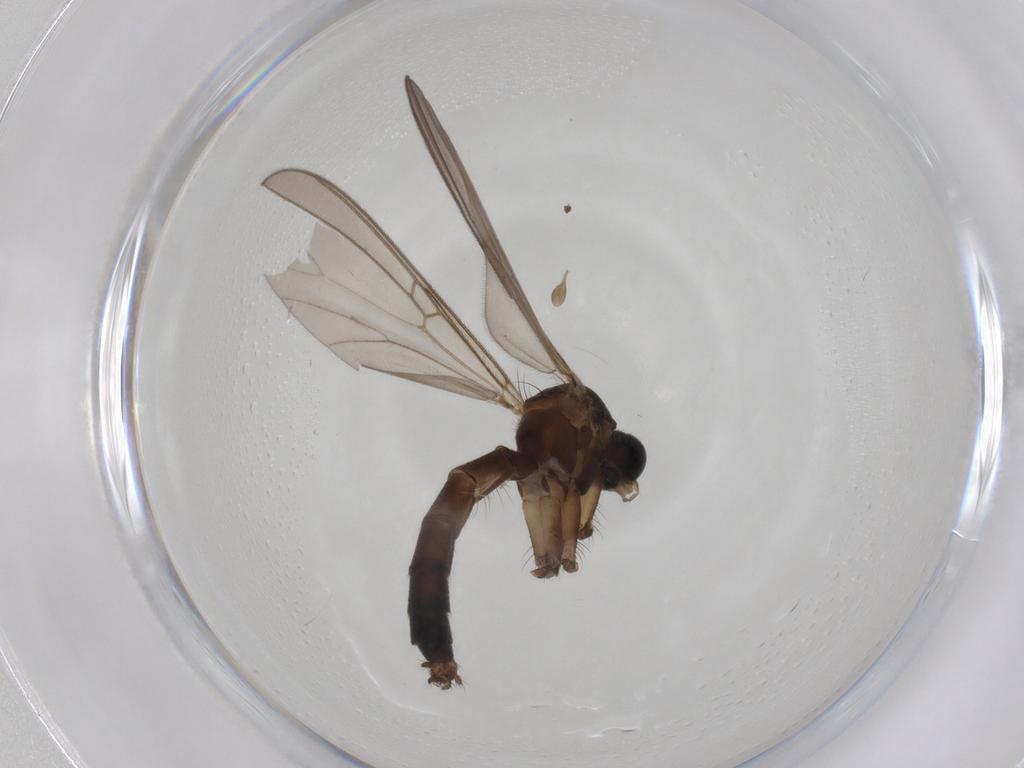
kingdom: Animalia
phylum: Arthropoda
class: Insecta
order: Diptera
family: Mycetophilidae
